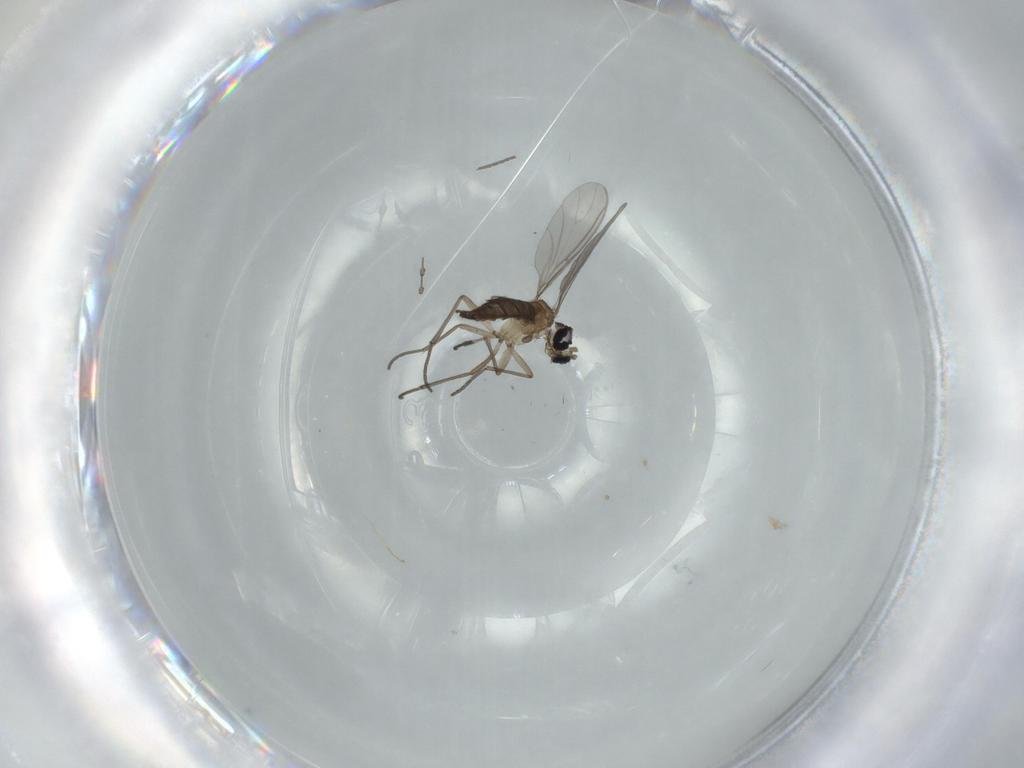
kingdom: Animalia
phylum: Arthropoda
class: Insecta
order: Diptera
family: Sciaridae
